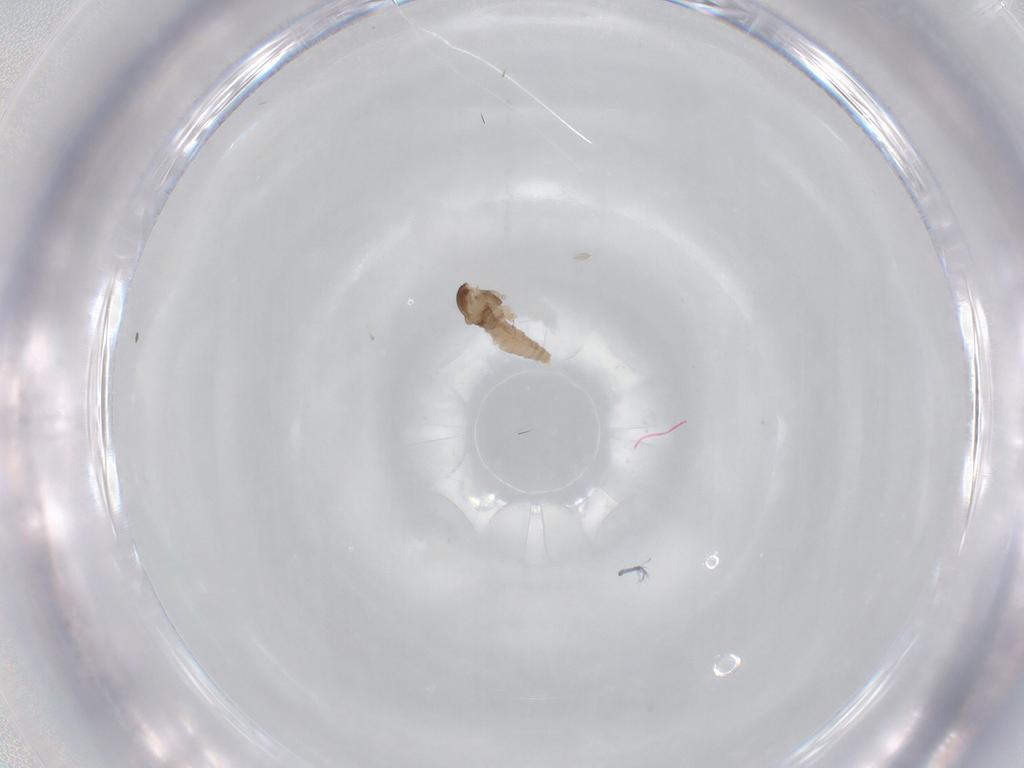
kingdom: Animalia
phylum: Arthropoda
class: Insecta
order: Diptera
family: Cecidomyiidae
